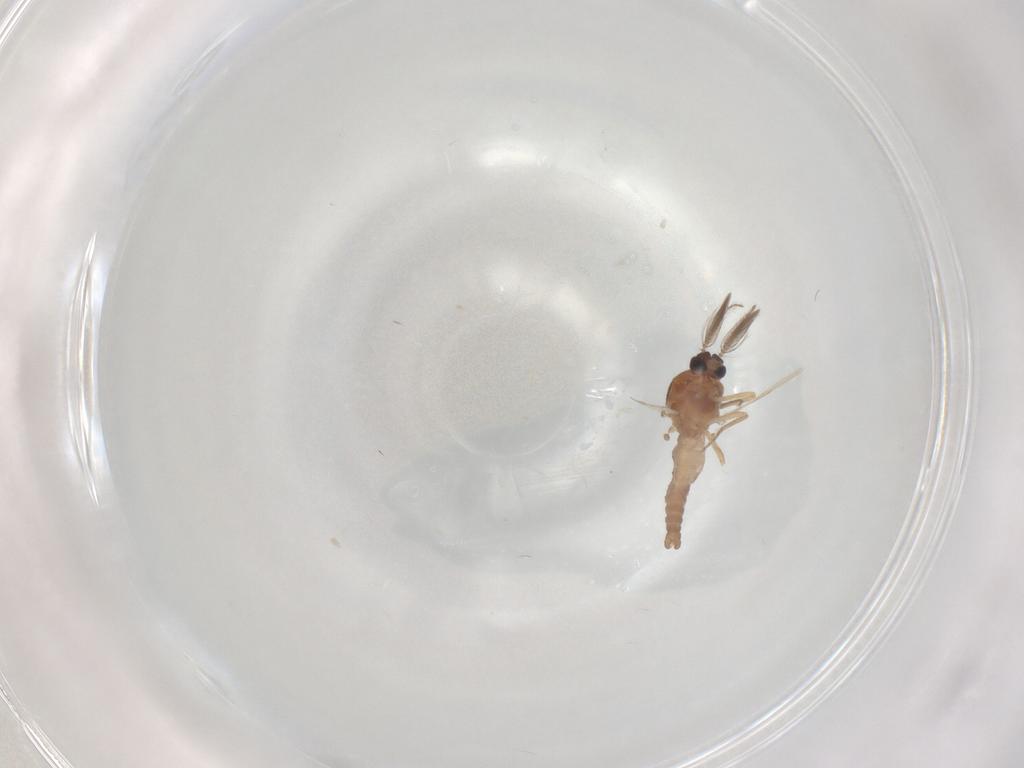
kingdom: Animalia
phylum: Arthropoda
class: Insecta
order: Diptera
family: Ceratopogonidae
